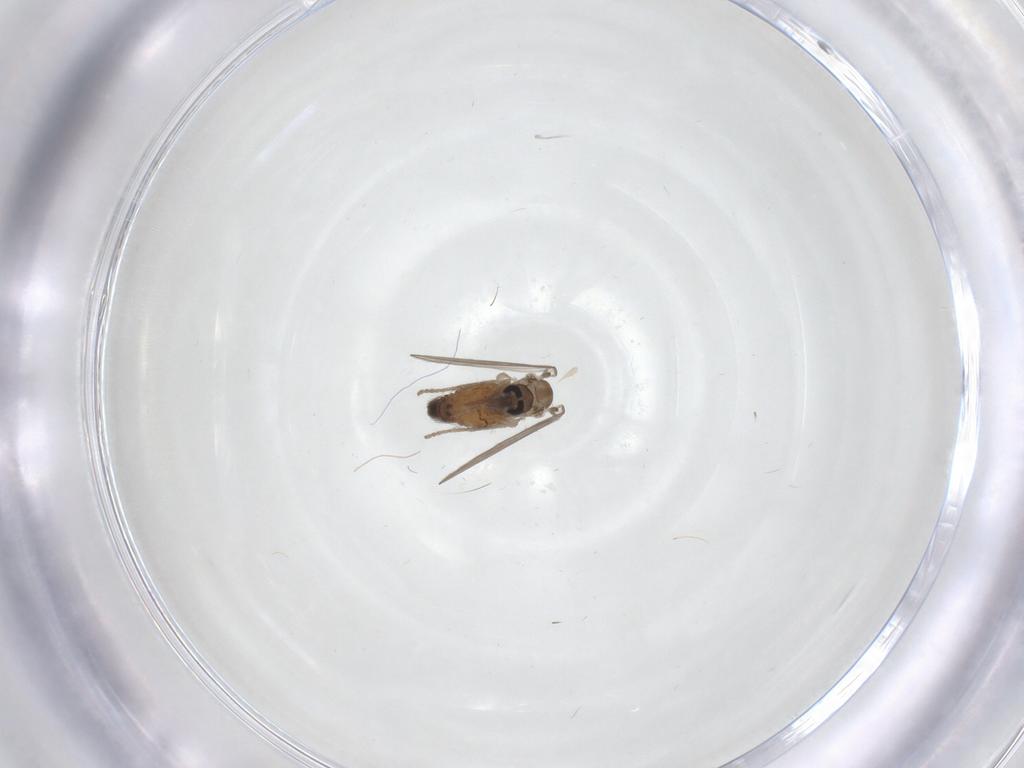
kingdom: Animalia
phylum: Arthropoda
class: Insecta
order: Diptera
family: Psychodidae
